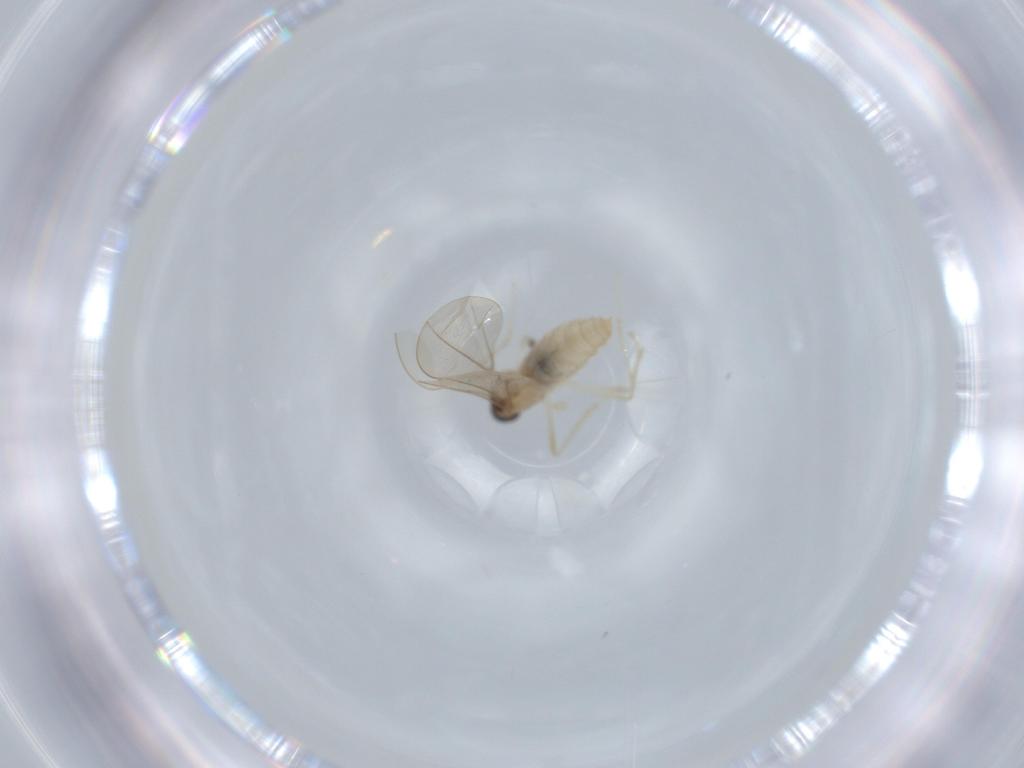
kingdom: Animalia
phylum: Arthropoda
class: Insecta
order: Diptera
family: Cecidomyiidae
